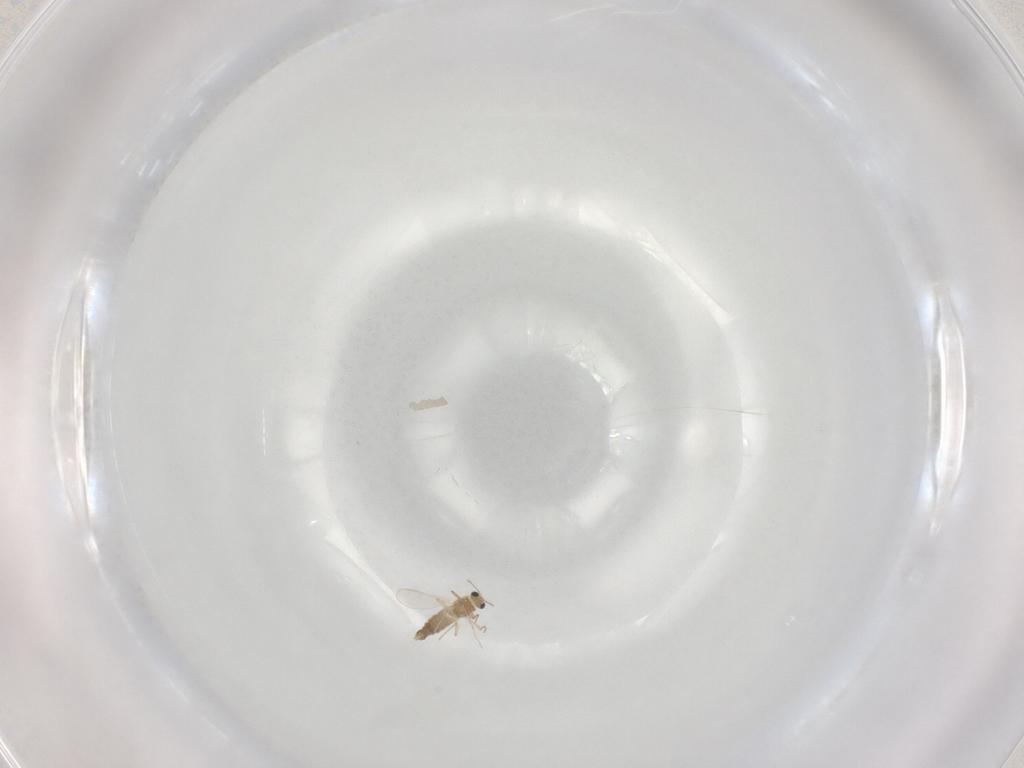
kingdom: Animalia
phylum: Arthropoda
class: Insecta
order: Diptera
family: Chironomidae
